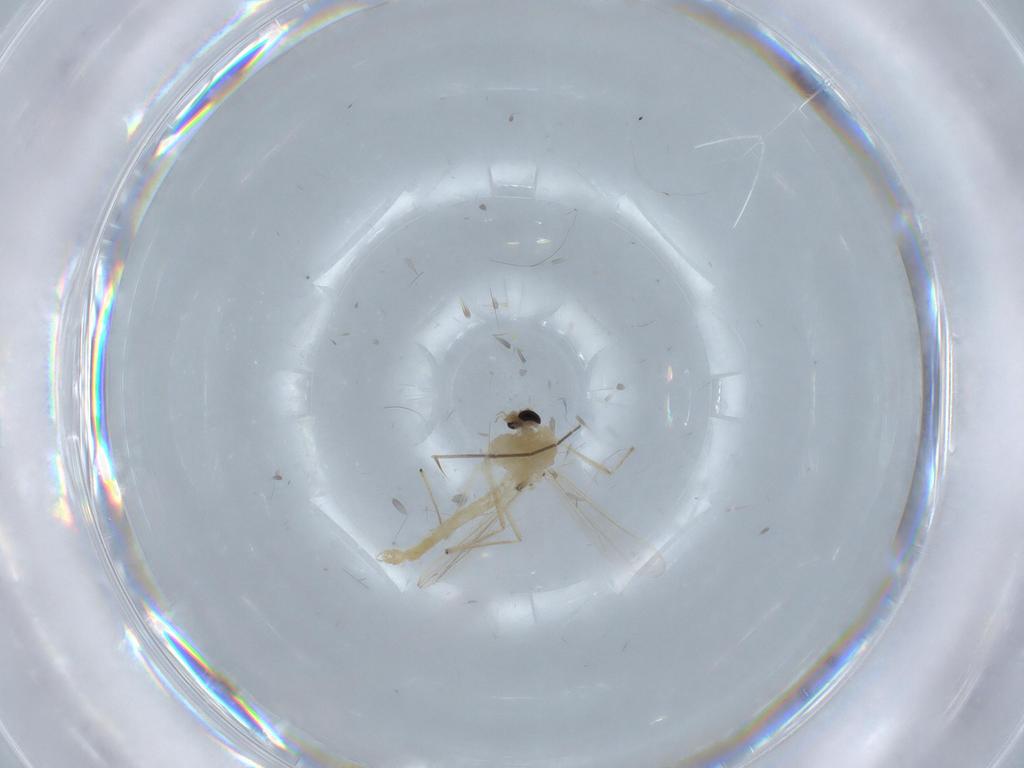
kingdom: Animalia
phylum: Arthropoda
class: Insecta
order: Diptera
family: Chironomidae
